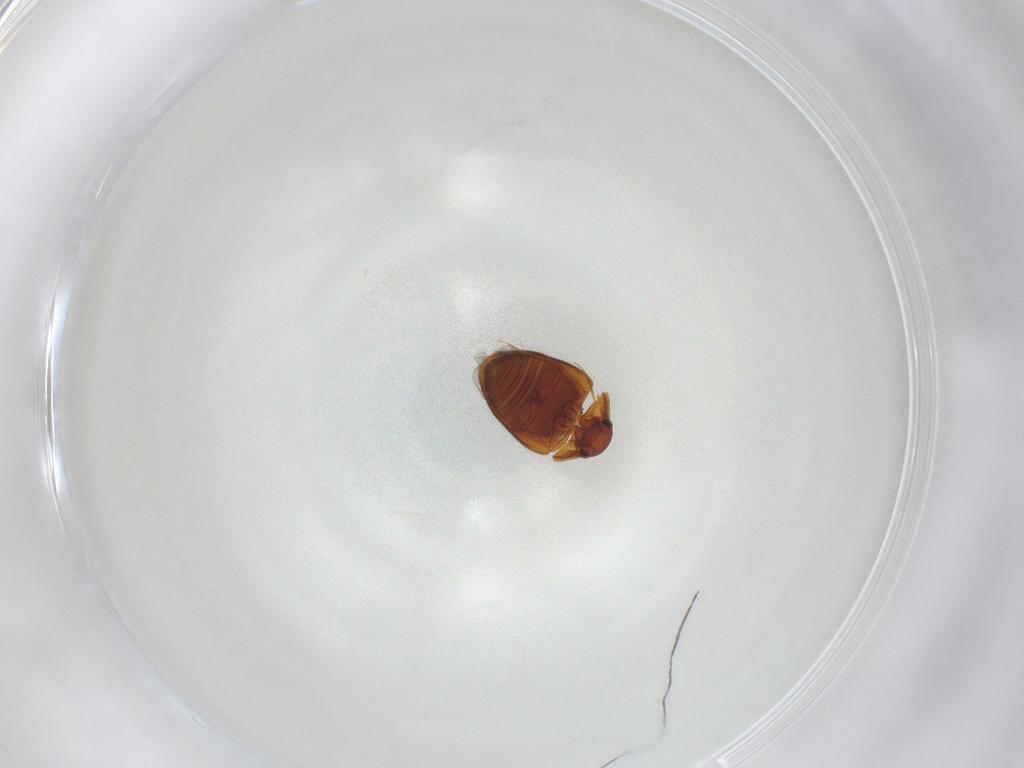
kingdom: Animalia
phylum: Arthropoda
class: Insecta
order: Coleoptera
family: Clambidae
